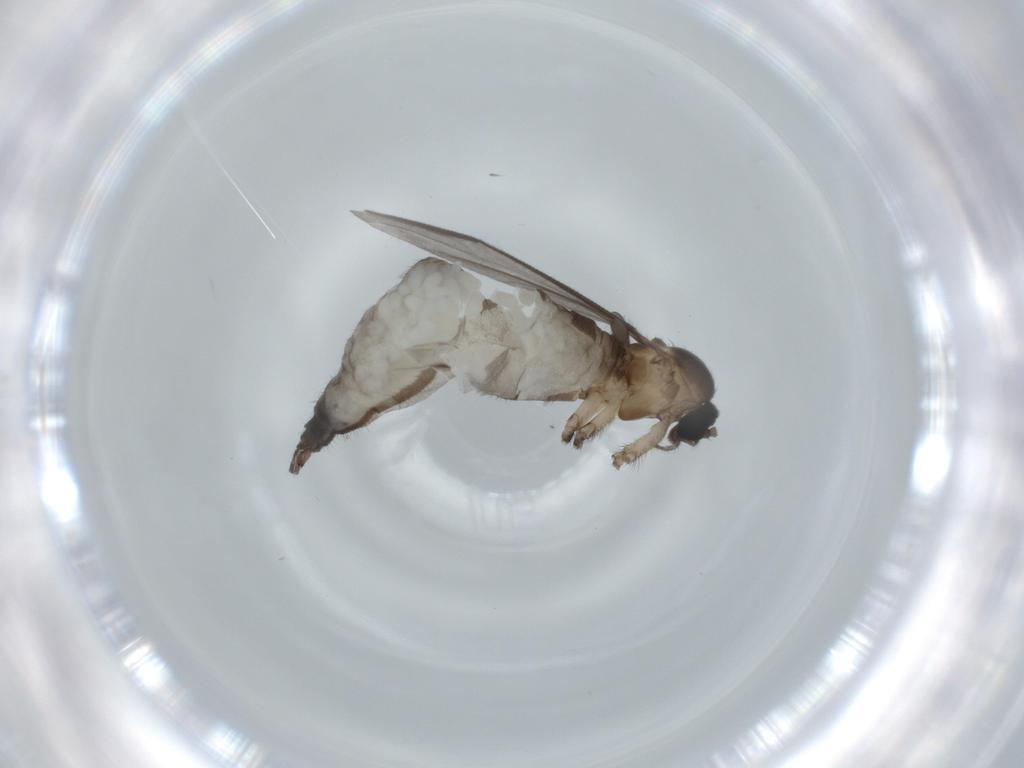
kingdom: Animalia
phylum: Arthropoda
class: Insecta
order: Diptera
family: Sciaridae
